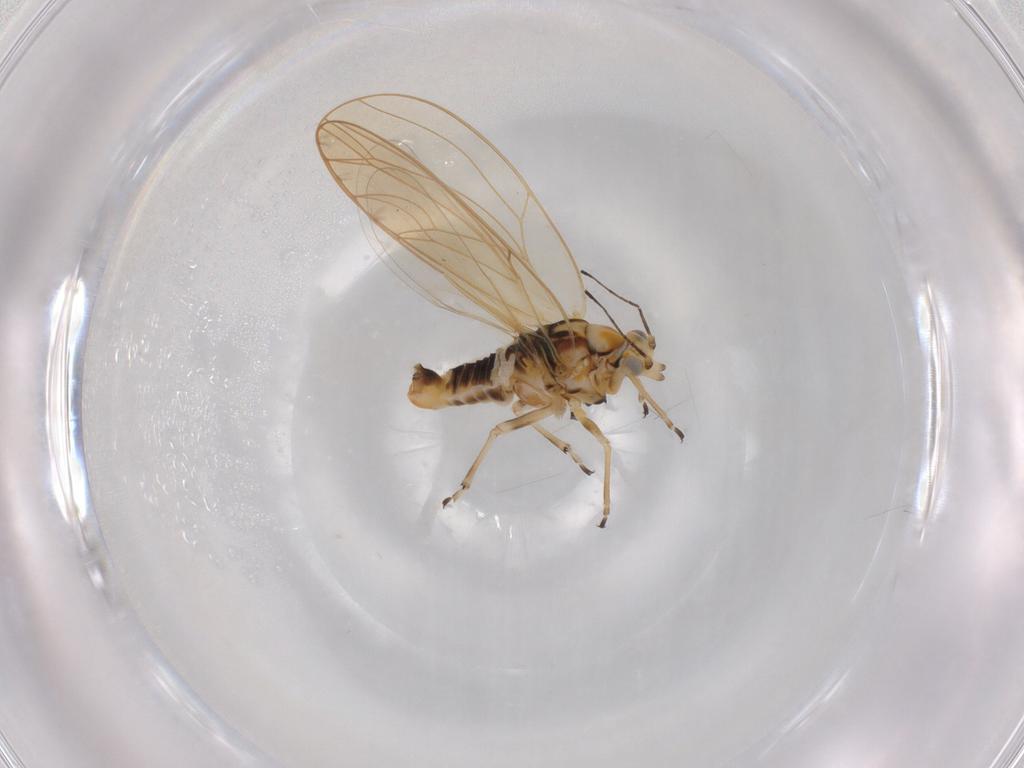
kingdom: Animalia
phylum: Arthropoda
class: Insecta
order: Hemiptera
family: Triozidae
